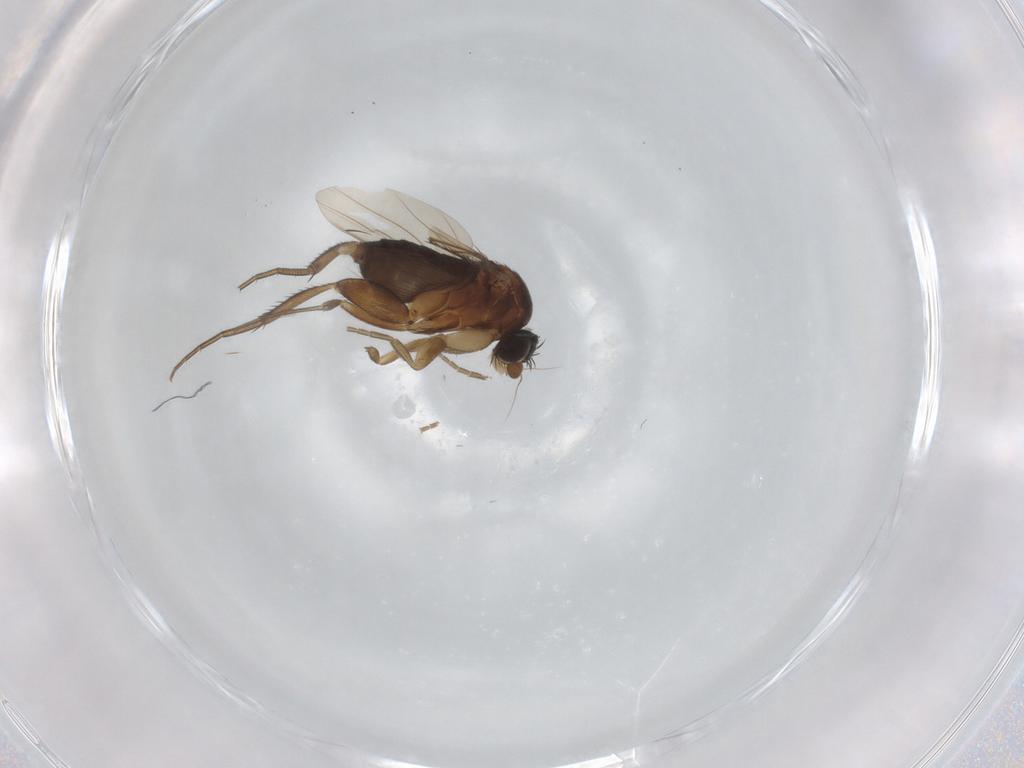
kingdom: Animalia
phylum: Arthropoda
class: Insecta
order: Diptera
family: Phoridae
